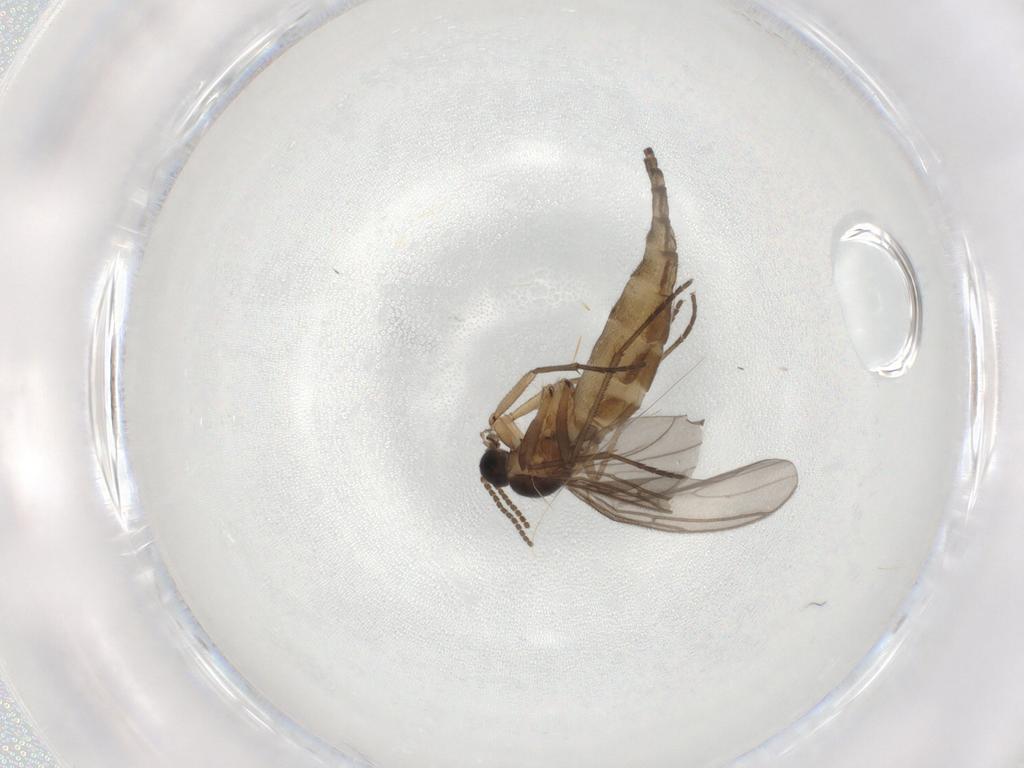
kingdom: Animalia
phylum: Arthropoda
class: Insecta
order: Diptera
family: Sciaridae
